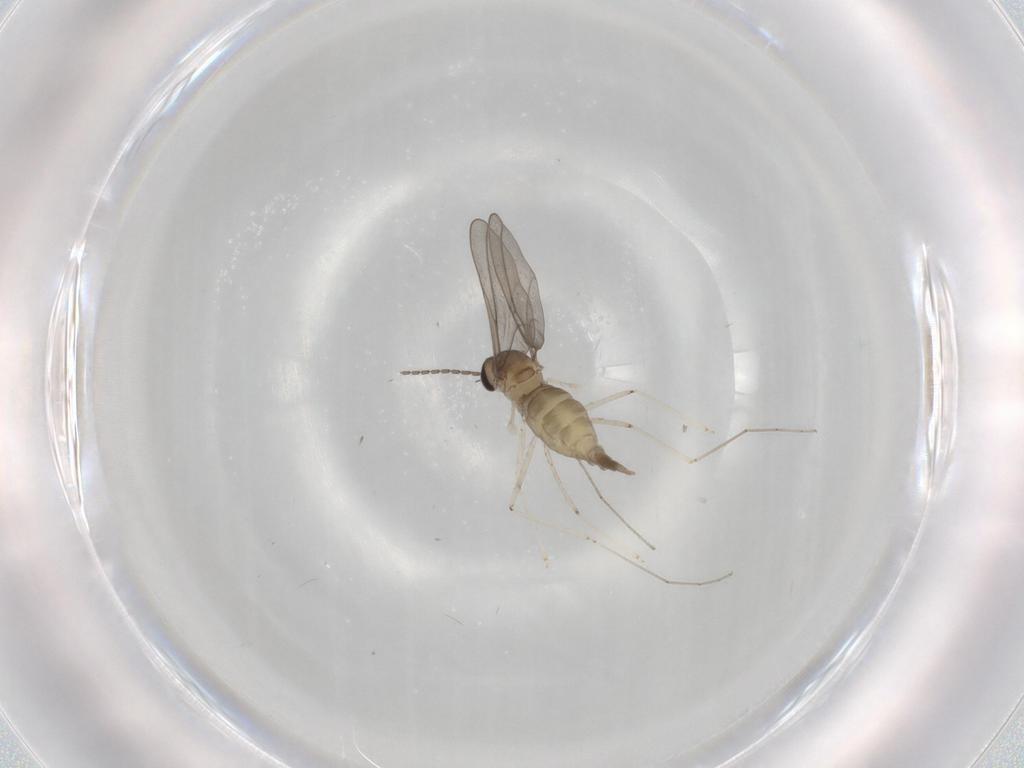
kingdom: Animalia
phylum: Arthropoda
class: Insecta
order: Diptera
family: Cecidomyiidae
